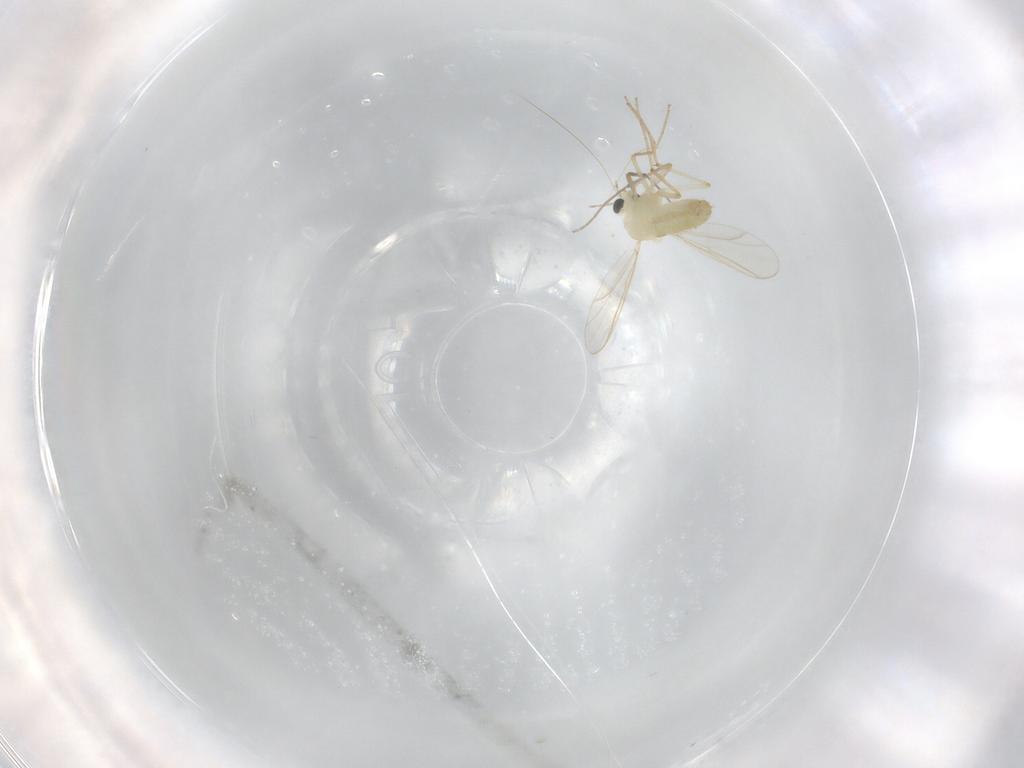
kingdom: Animalia
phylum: Arthropoda
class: Insecta
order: Diptera
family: Chironomidae
